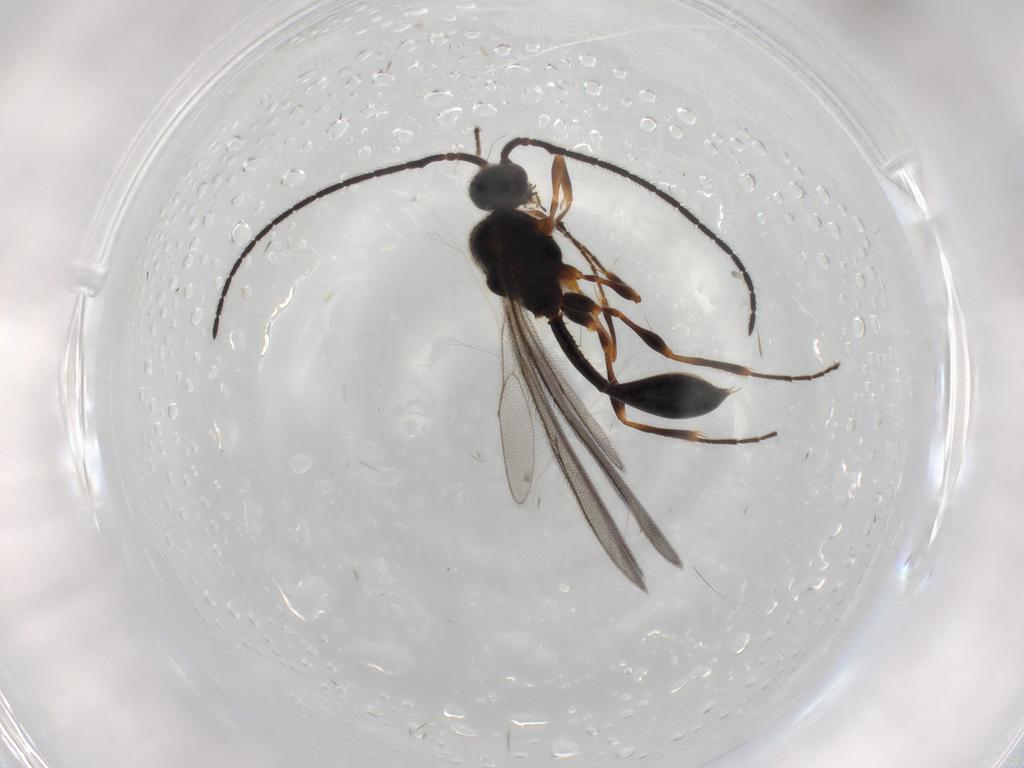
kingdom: Animalia
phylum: Arthropoda
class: Insecta
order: Hymenoptera
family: Diapriidae
